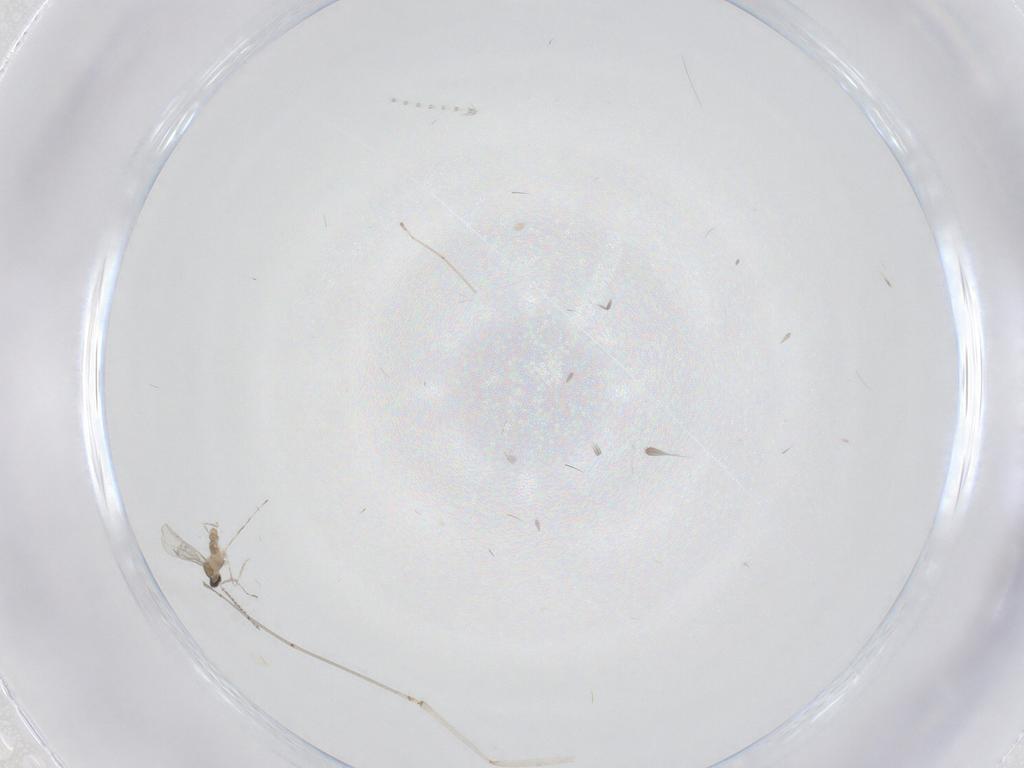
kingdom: Animalia
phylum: Arthropoda
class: Insecta
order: Diptera
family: Cecidomyiidae
